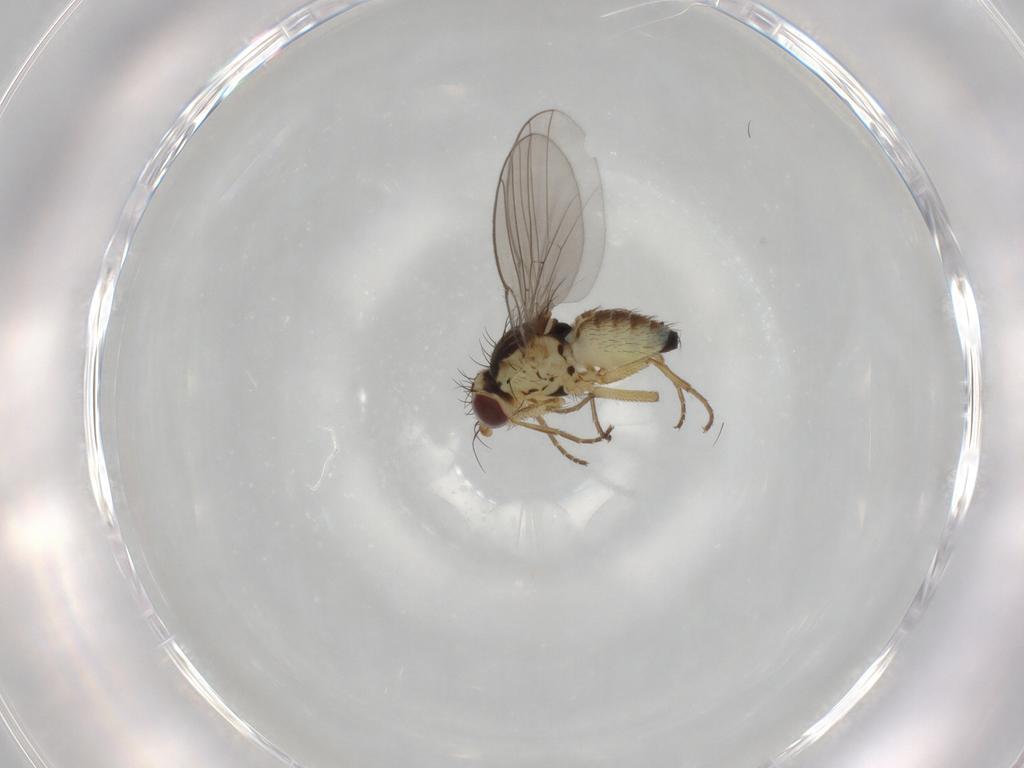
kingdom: Animalia
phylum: Arthropoda
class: Insecta
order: Diptera
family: Agromyzidae
